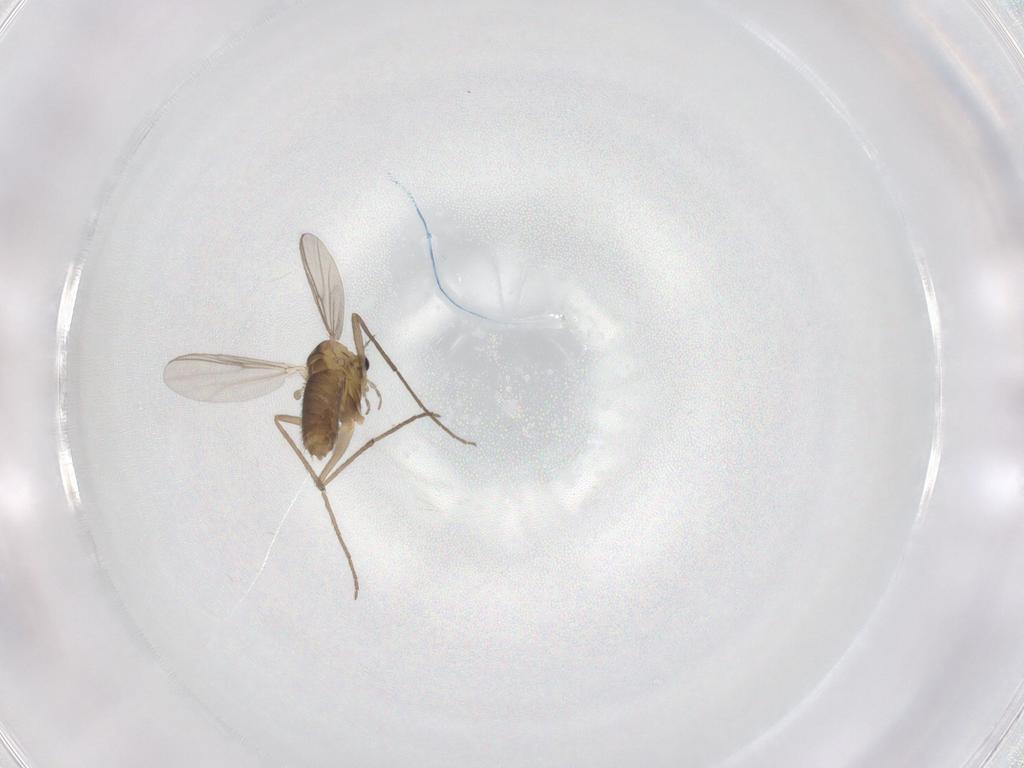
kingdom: Animalia
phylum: Arthropoda
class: Insecta
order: Diptera
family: Chironomidae
